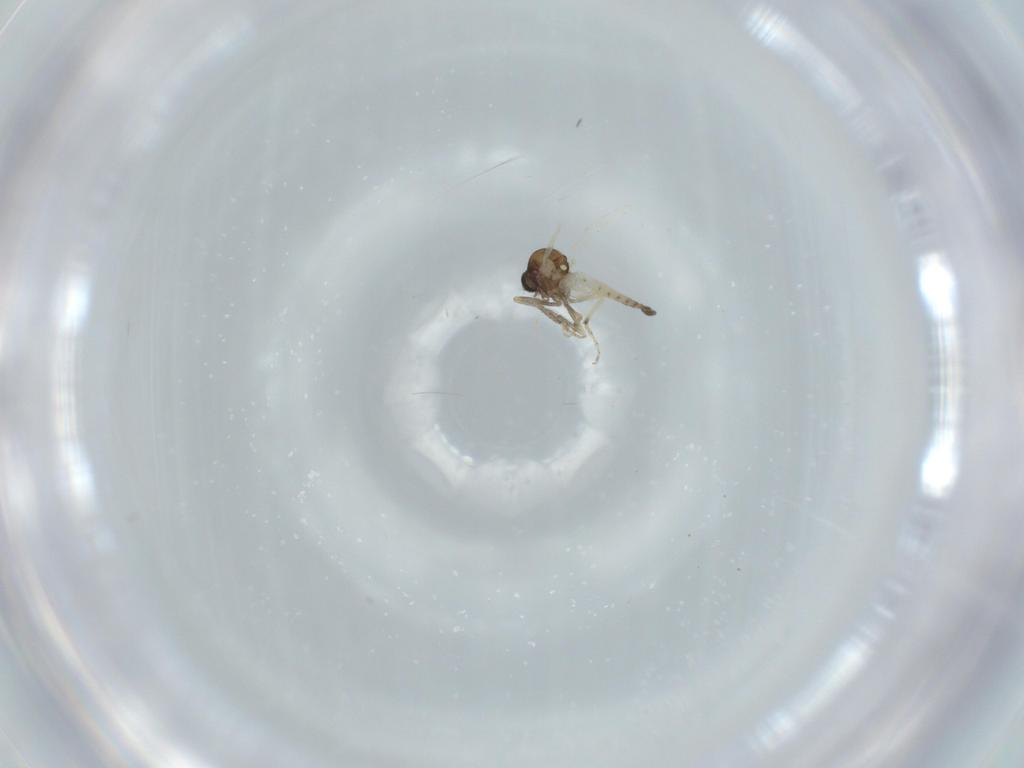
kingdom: Animalia
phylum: Arthropoda
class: Insecta
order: Diptera
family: Ceratopogonidae
